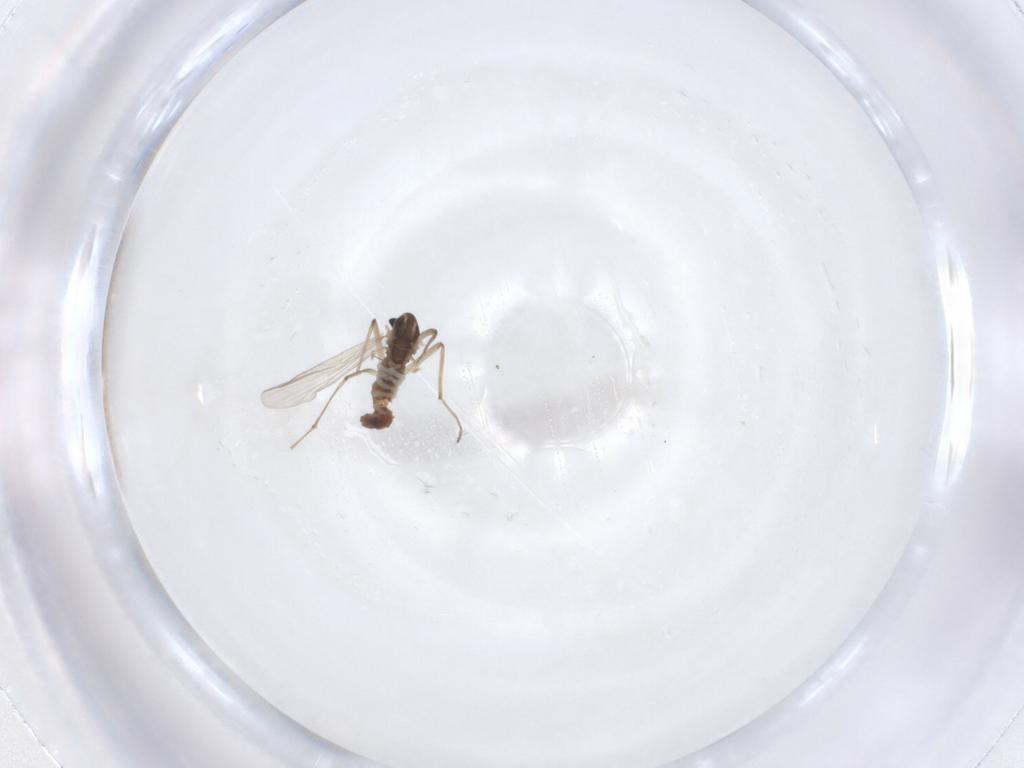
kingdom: Animalia
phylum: Arthropoda
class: Insecta
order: Diptera
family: Chironomidae
